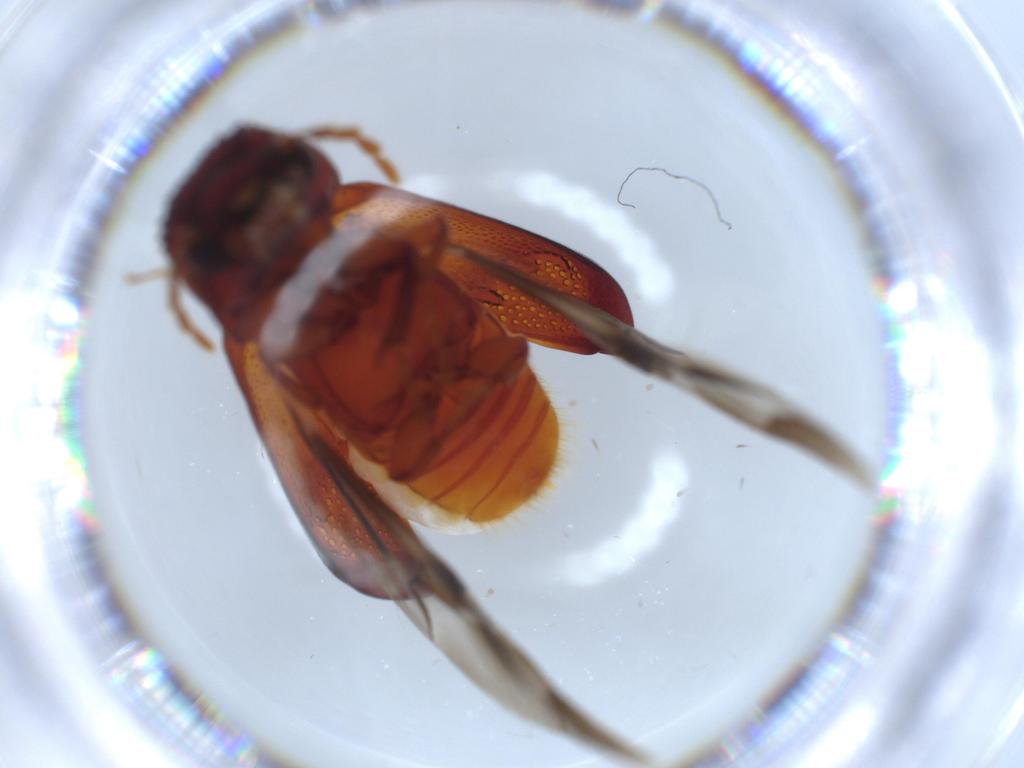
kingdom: Animalia
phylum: Arthropoda
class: Insecta
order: Coleoptera
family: Bostrichidae
